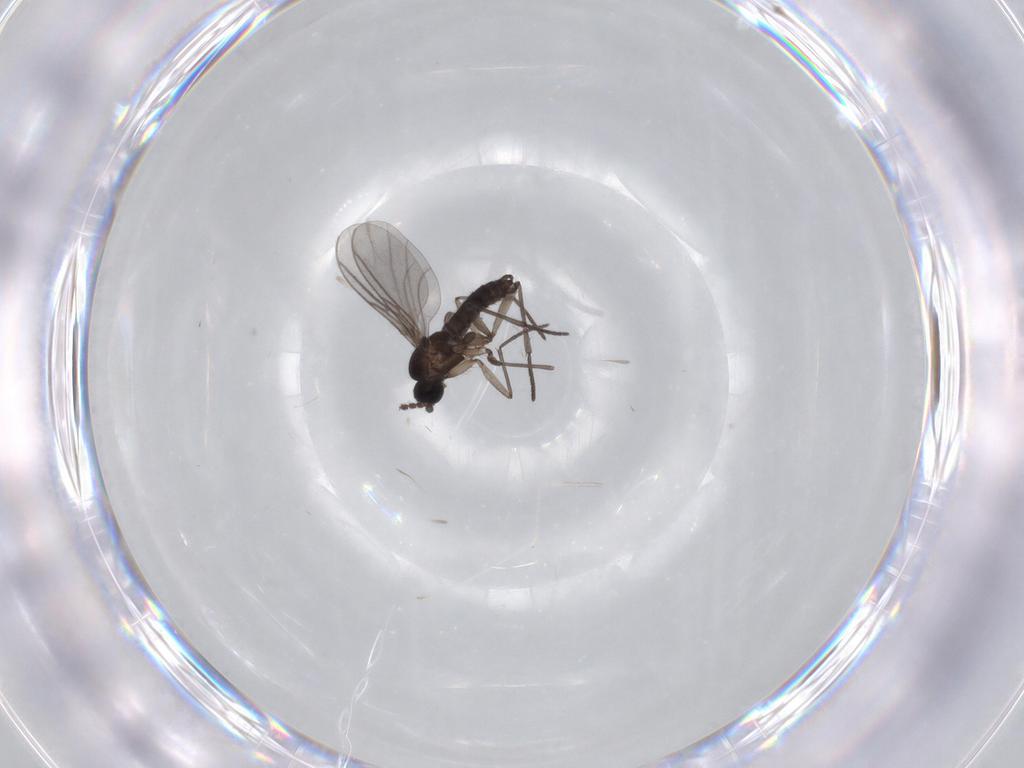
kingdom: Animalia
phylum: Arthropoda
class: Insecta
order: Diptera
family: Sciaridae
